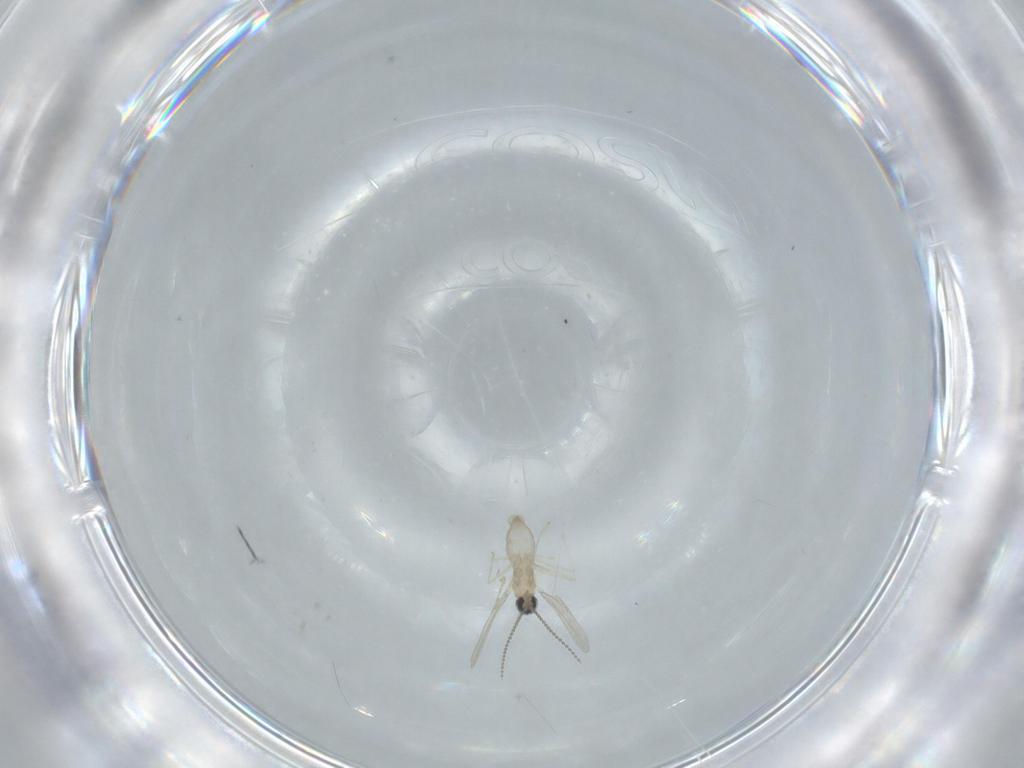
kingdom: Animalia
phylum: Arthropoda
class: Insecta
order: Diptera
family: Cecidomyiidae
